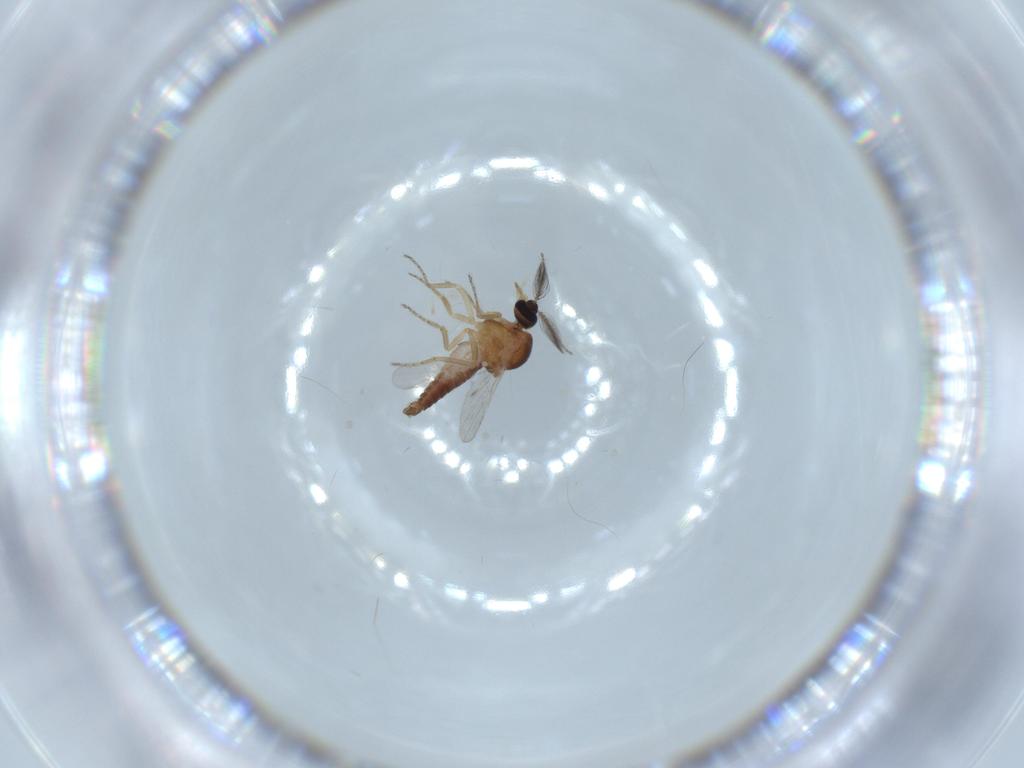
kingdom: Animalia
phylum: Arthropoda
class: Insecta
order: Diptera
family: Ceratopogonidae
